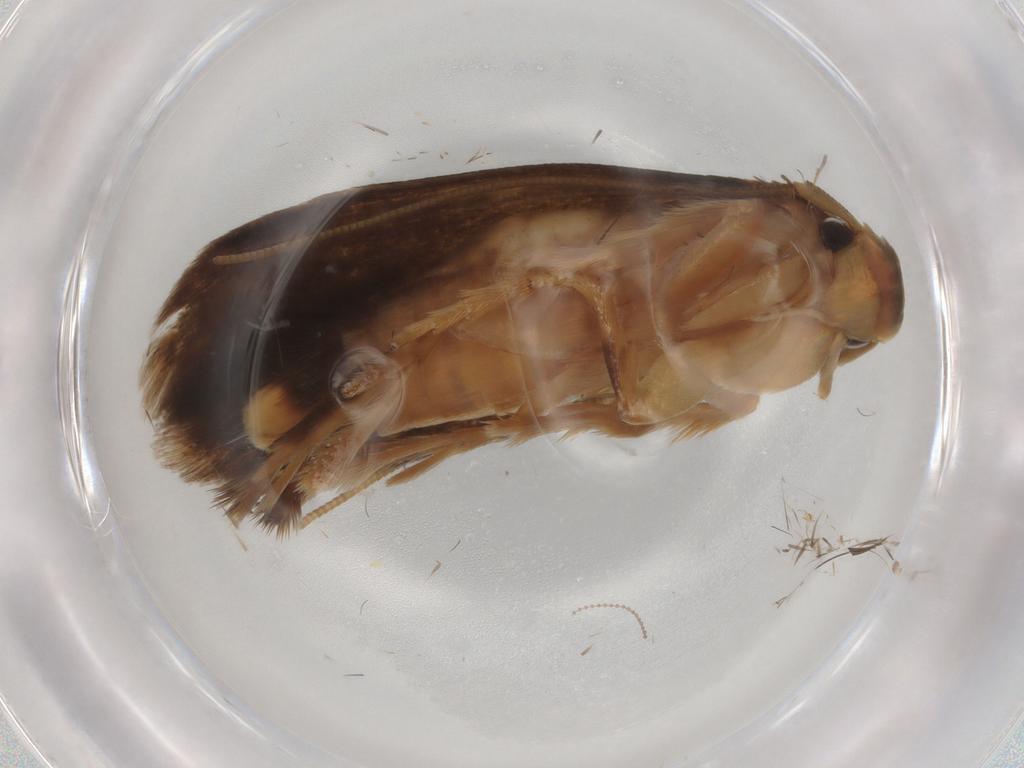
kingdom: Animalia
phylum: Arthropoda
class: Insecta
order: Lepidoptera
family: Tineidae
